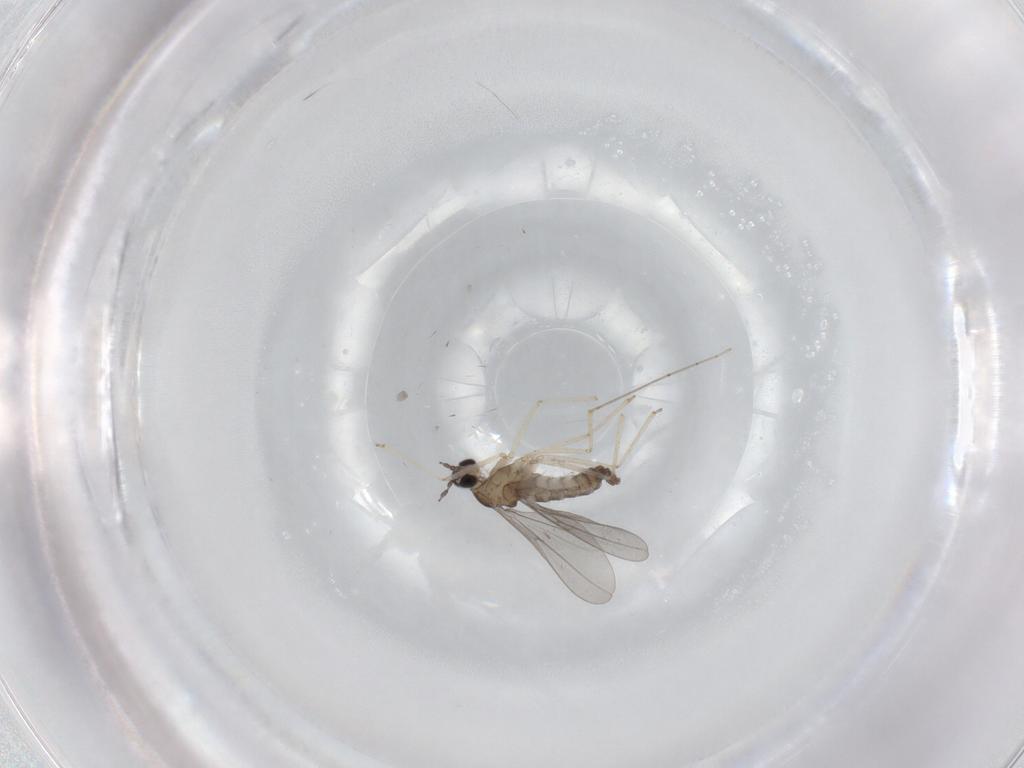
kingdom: Animalia
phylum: Arthropoda
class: Insecta
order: Diptera
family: Cecidomyiidae
